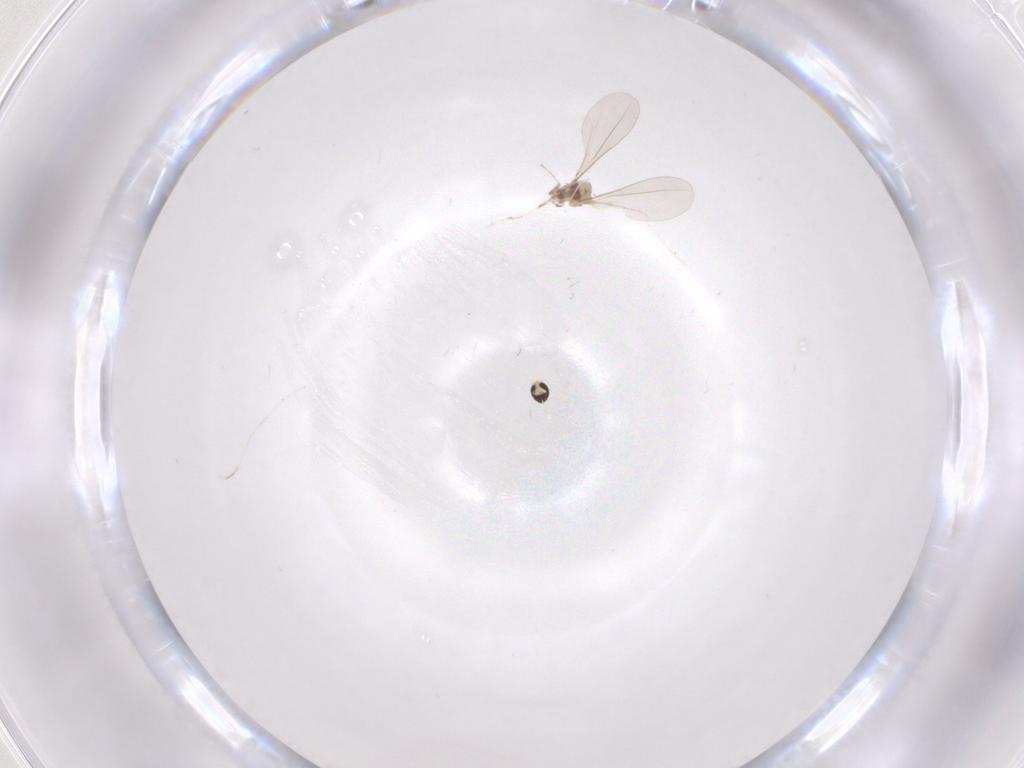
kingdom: Animalia
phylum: Arthropoda
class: Insecta
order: Diptera
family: Cecidomyiidae
